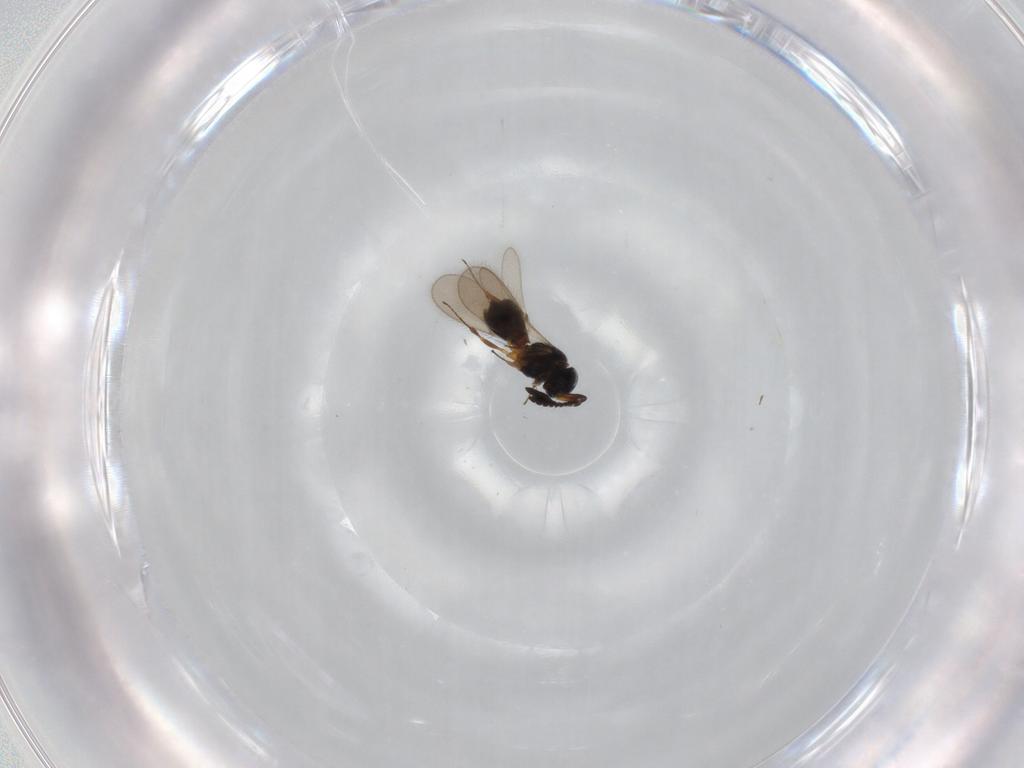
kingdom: Animalia
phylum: Arthropoda
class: Insecta
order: Hymenoptera
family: Scelionidae
